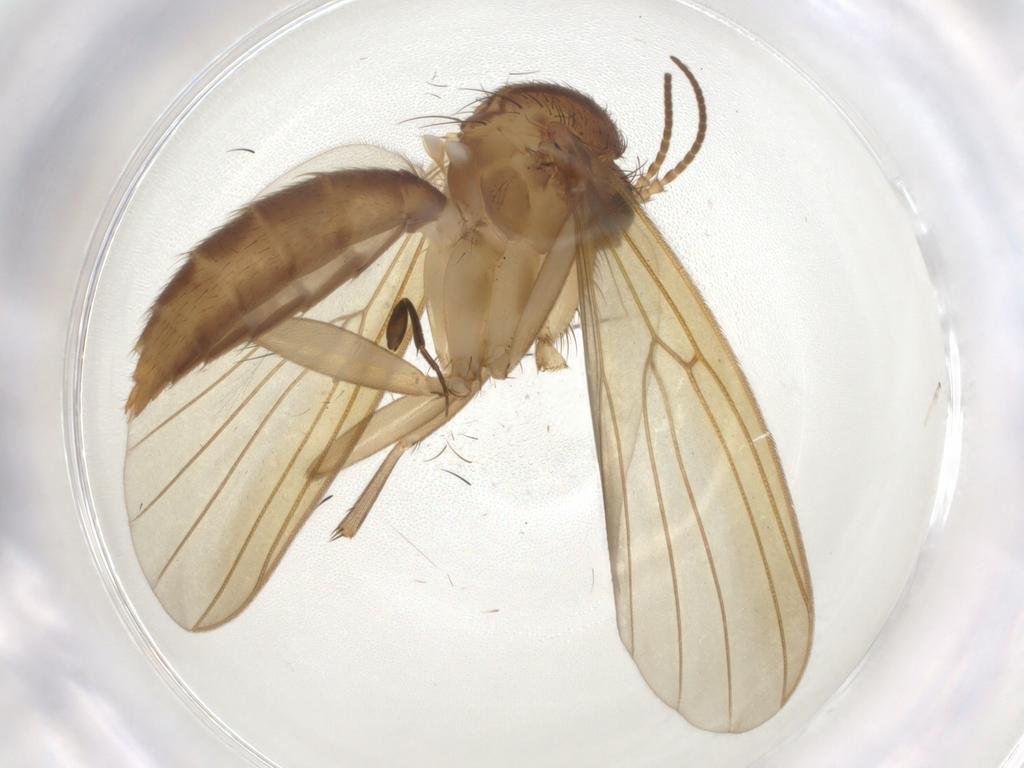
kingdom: Animalia
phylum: Arthropoda
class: Insecta
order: Diptera
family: Mycetophilidae
